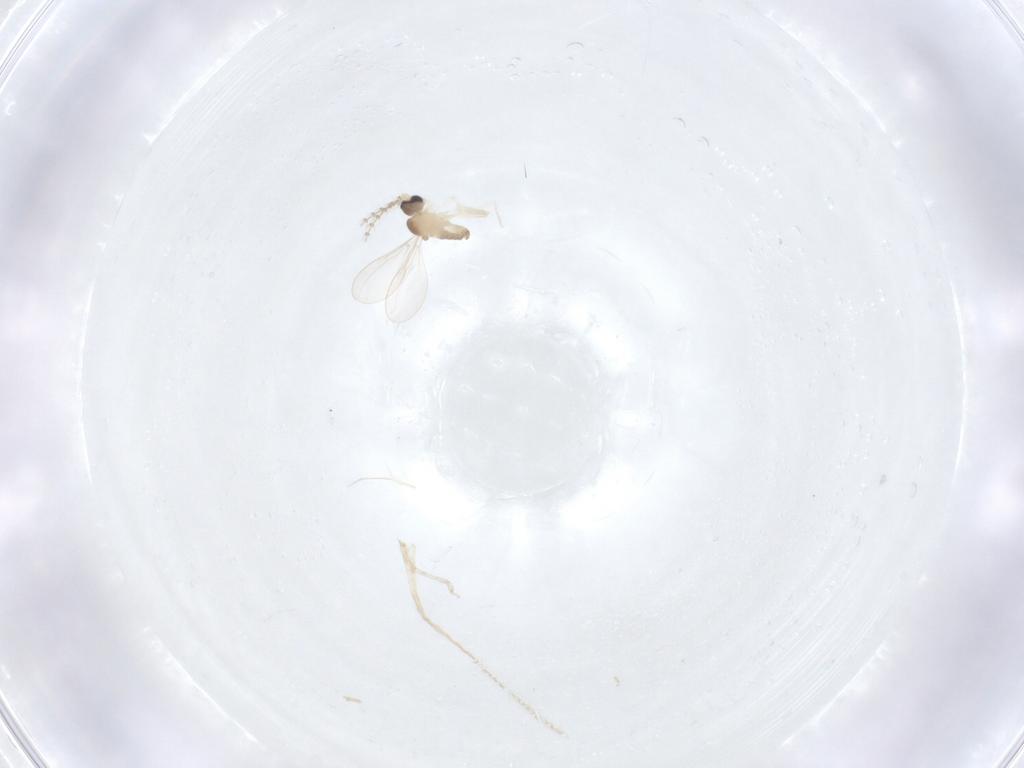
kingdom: Animalia
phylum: Arthropoda
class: Insecta
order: Diptera
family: Cecidomyiidae
